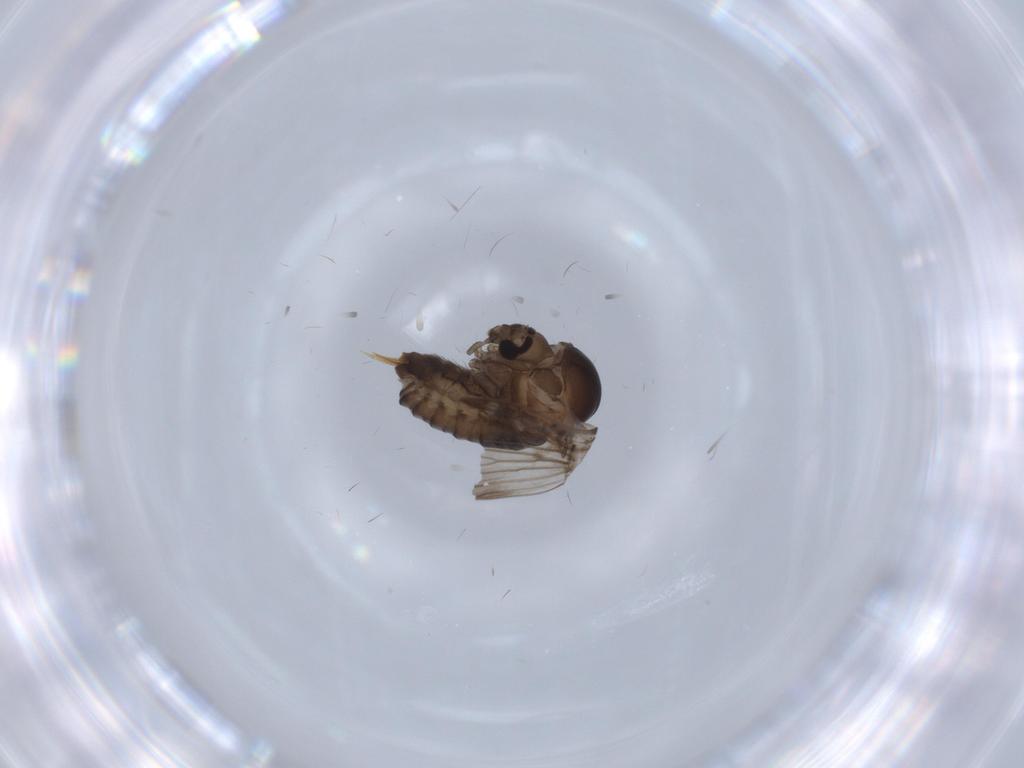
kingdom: Animalia
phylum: Arthropoda
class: Insecta
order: Diptera
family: Psychodidae
